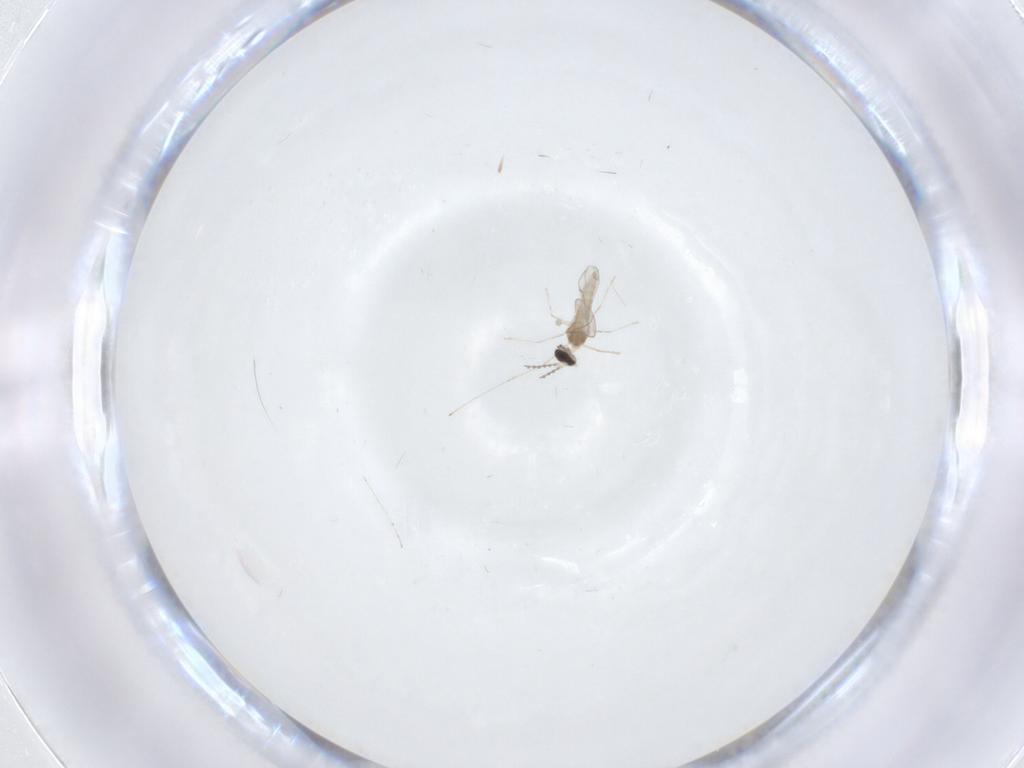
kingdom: Animalia
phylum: Arthropoda
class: Insecta
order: Diptera
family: Cecidomyiidae
